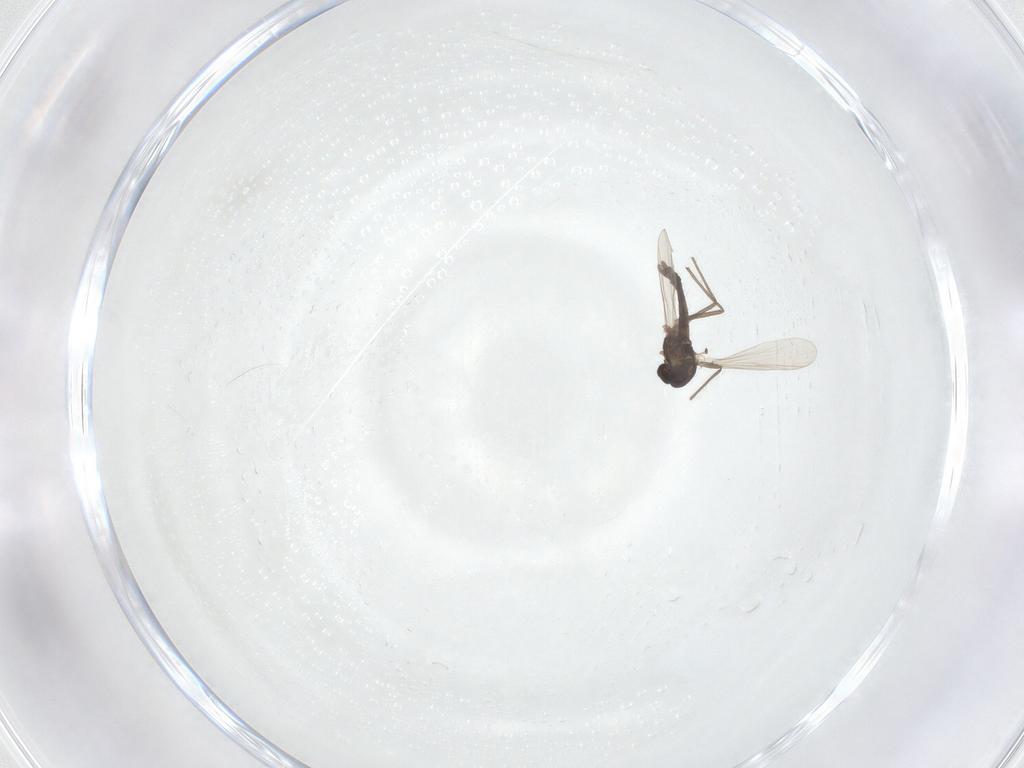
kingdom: Animalia
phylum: Arthropoda
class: Insecta
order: Diptera
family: Chironomidae
